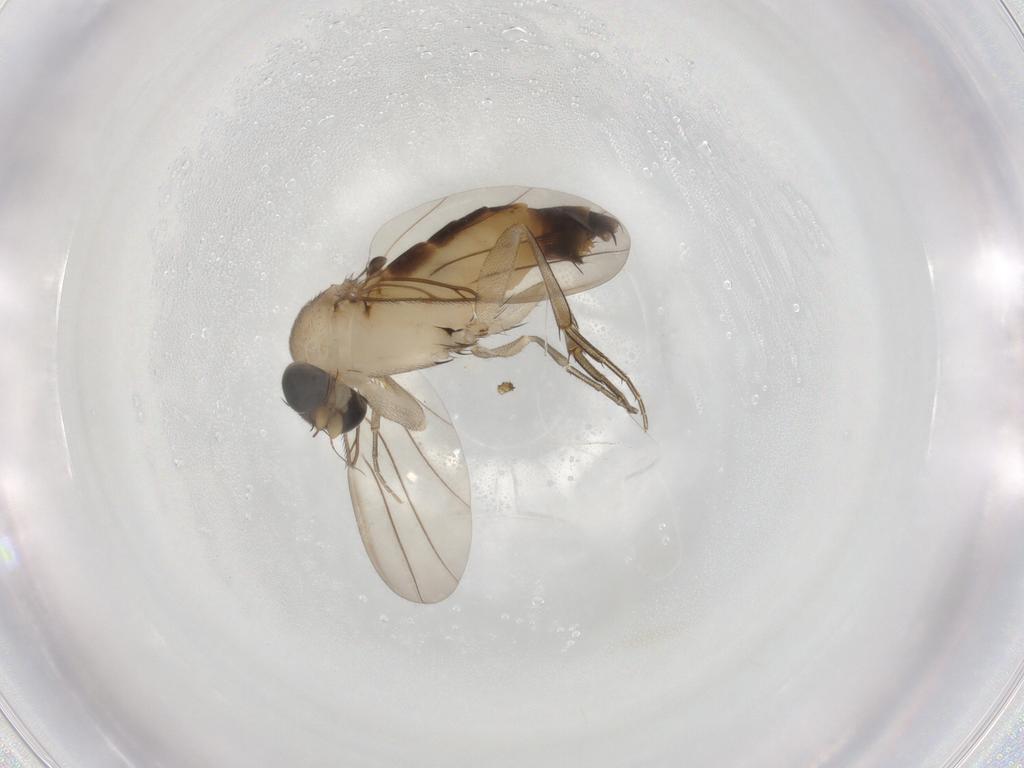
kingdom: Animalia
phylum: Arthropoda
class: Insecta
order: Diptera
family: Phoridae
